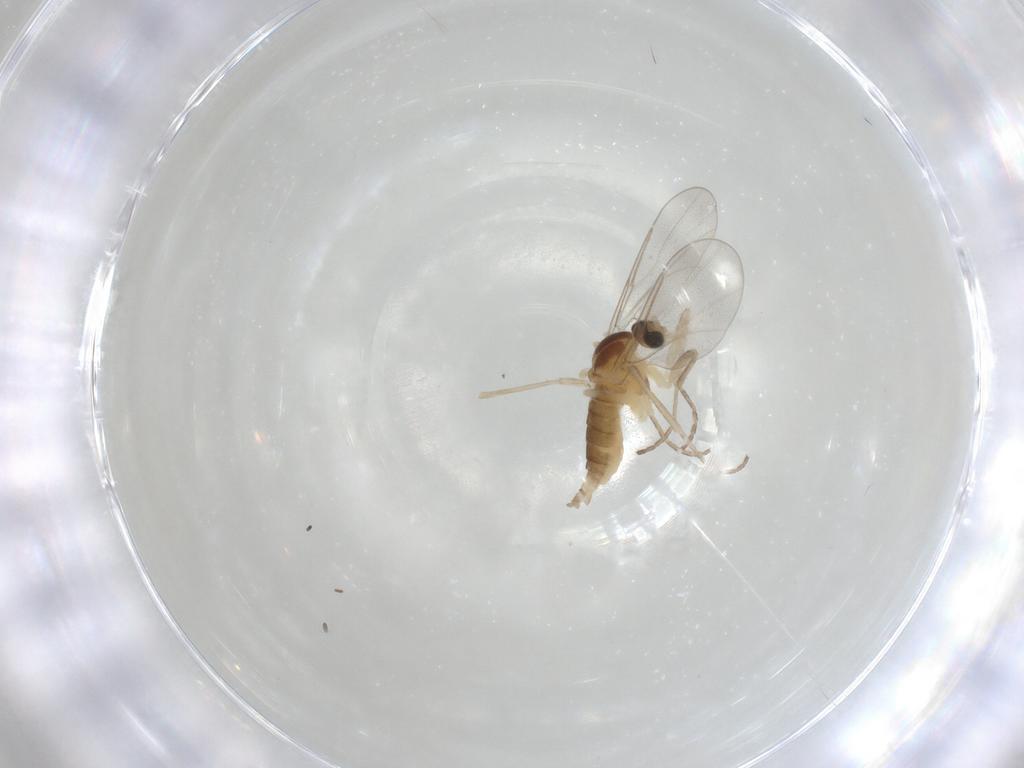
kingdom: Animalia
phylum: Arthropoda
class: Insecta
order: Diptera
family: Cecidomyiidae
